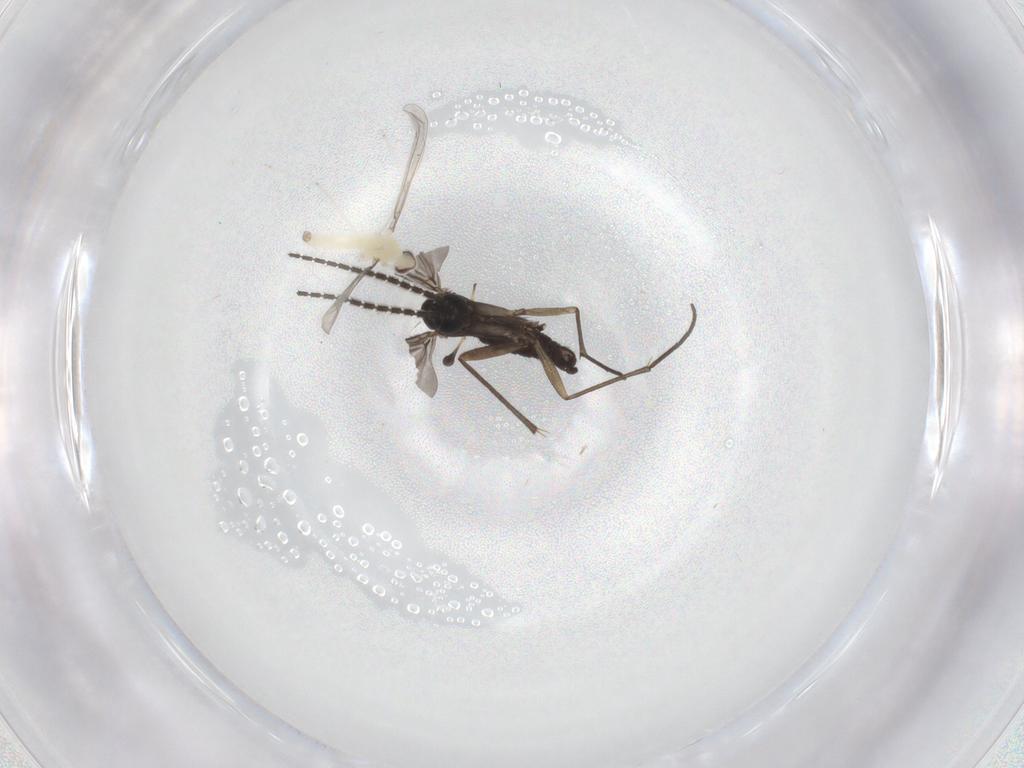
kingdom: Animalia
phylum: Arthropoda
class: Insecta
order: Diptera
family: Sciaridae
